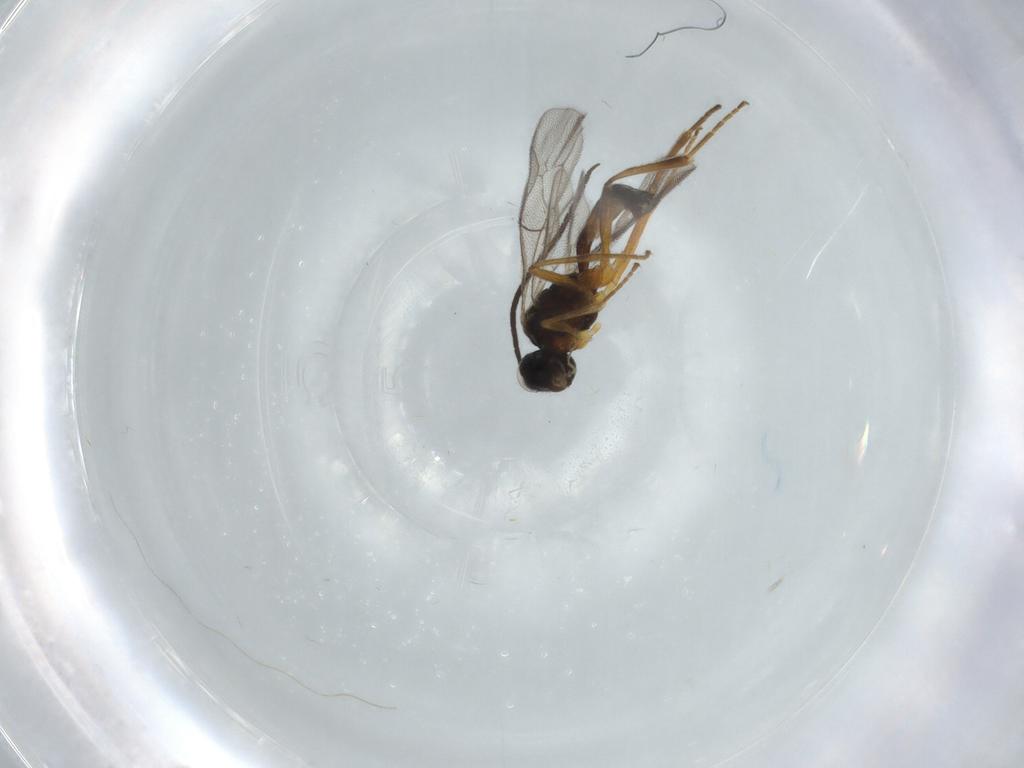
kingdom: Animalia
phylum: Arthropoda
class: Insecta
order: Hymenoptera
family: Ichneumonidae
